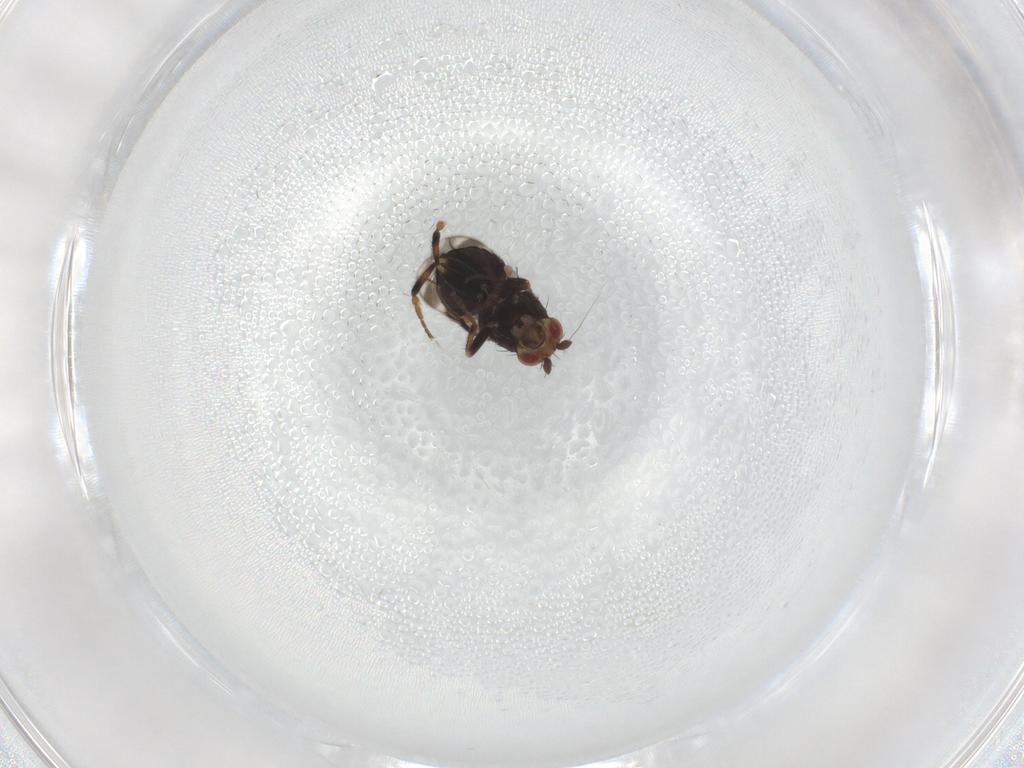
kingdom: Animalia
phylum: Arthropoda
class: Insecta
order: Diptera
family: Sphaeroceridae
